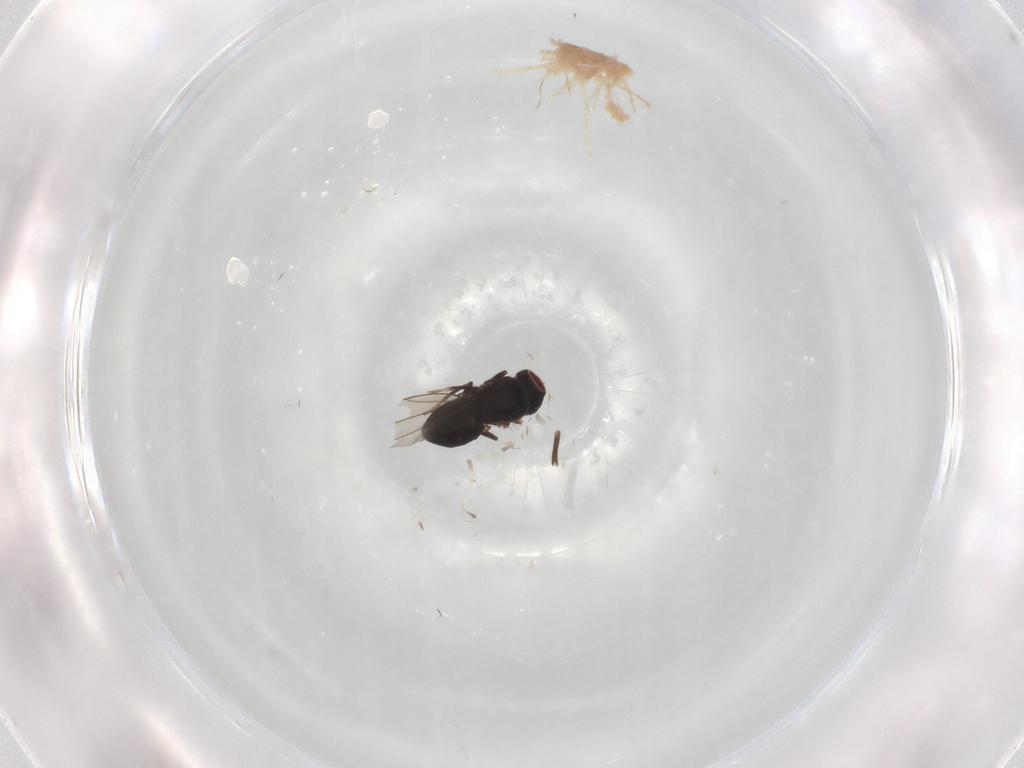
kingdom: Animalia
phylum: Arthropoda
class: Insecta
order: Diptera
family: Ephydridae
